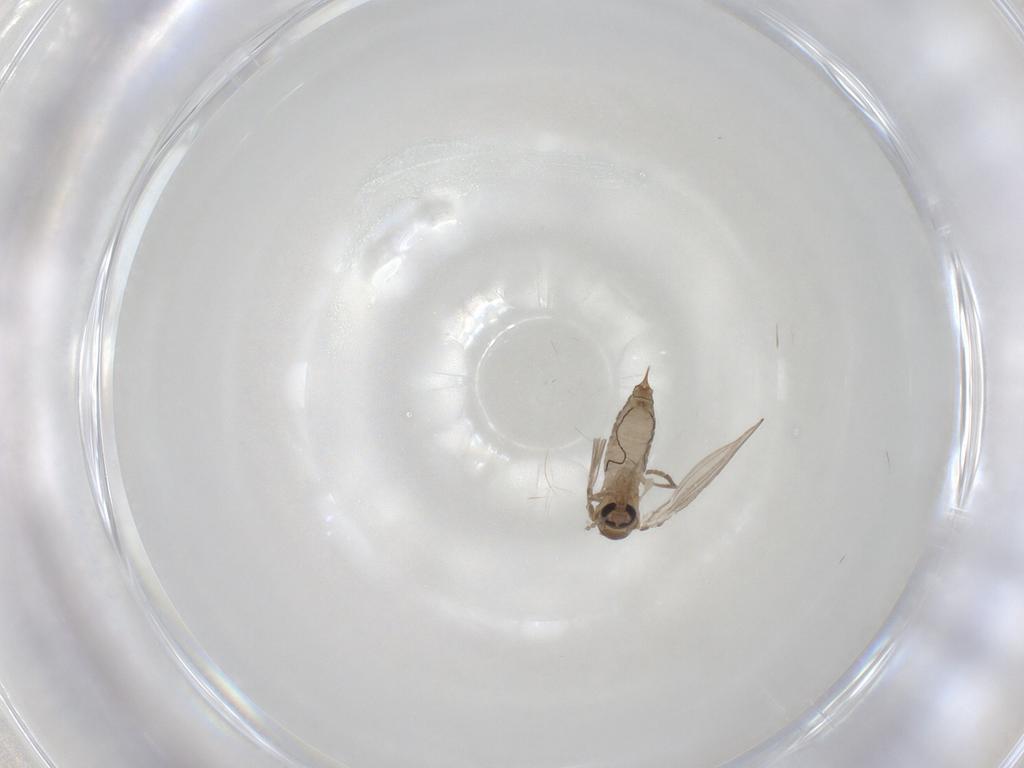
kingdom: Animalia
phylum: Arthropoda
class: Insecta
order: Diptera
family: Psychodidae
